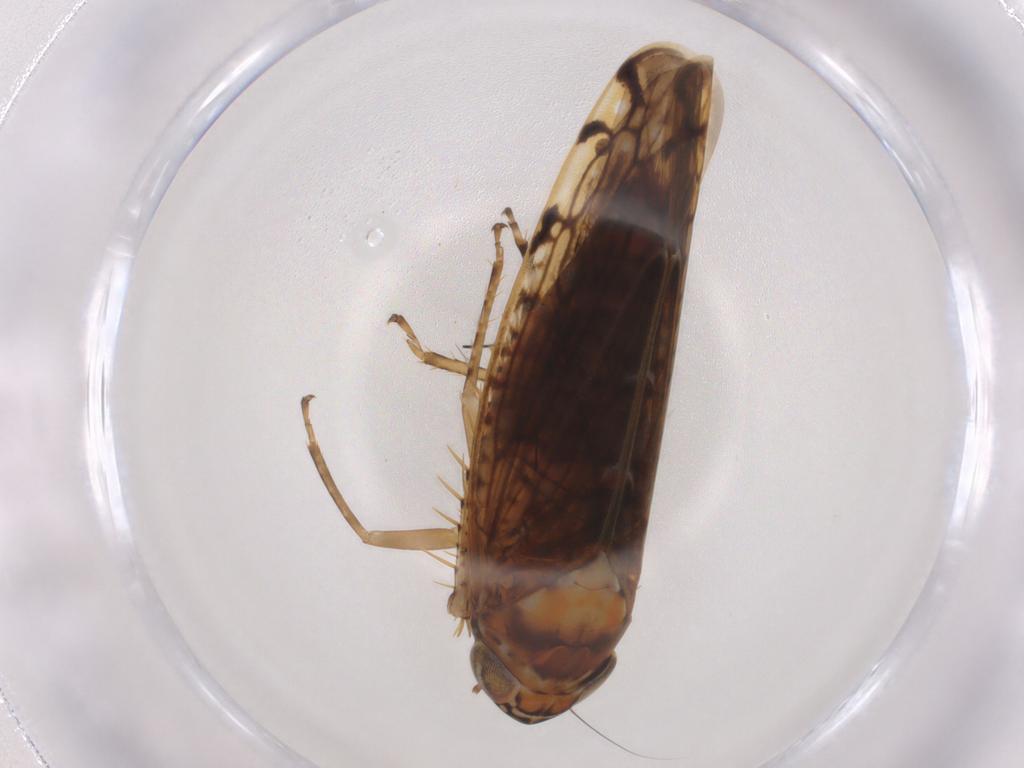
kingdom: Animalia
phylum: Arthropoda
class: Insecta
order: Hemiptera
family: Cicadellidae
